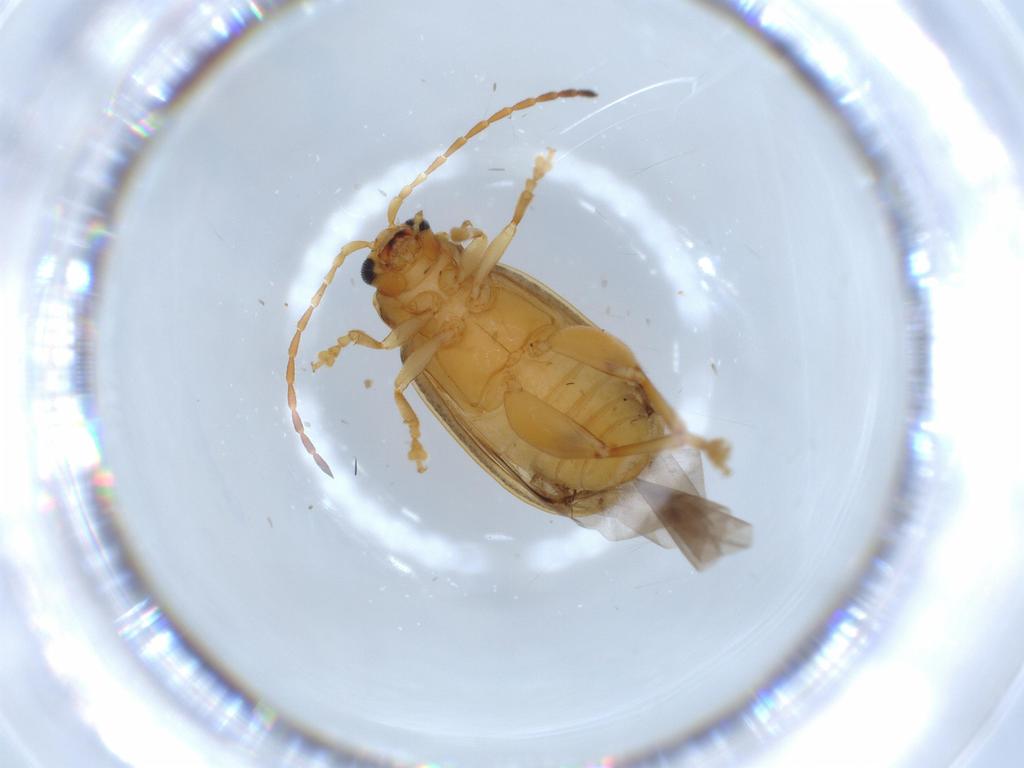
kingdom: Animalia
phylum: Arthropoda
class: Insecta
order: Coleoptera
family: Chrysomelidae
